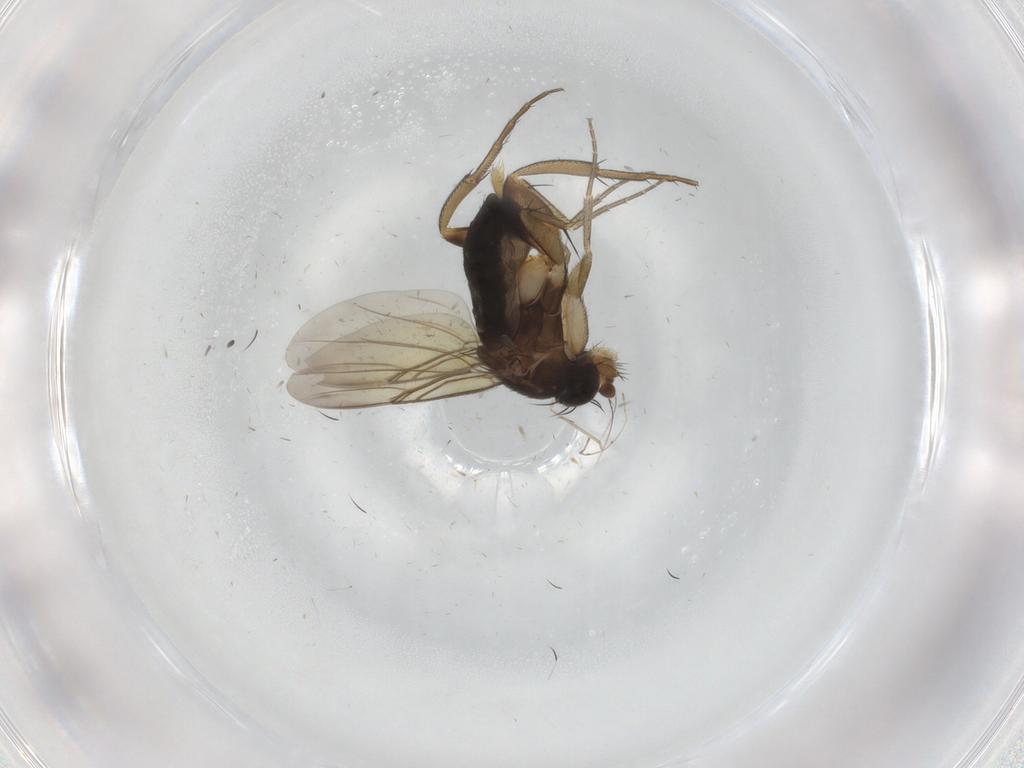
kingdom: Animalia
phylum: Arthropoda
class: Insecta
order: Diptera
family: Phoridae
